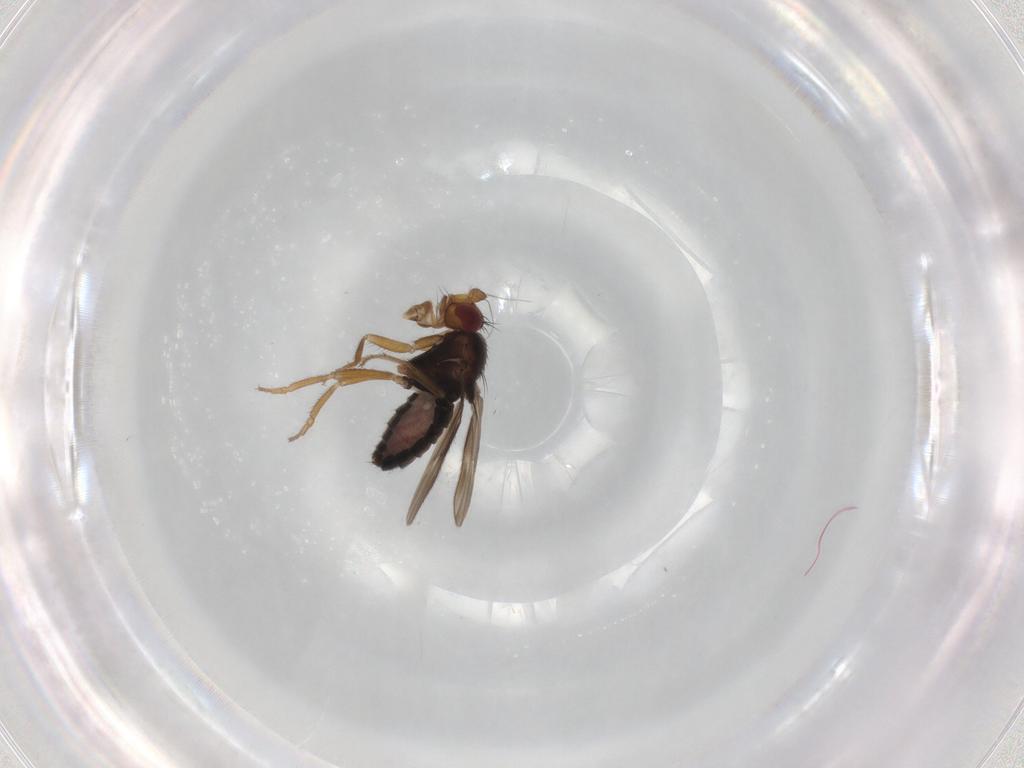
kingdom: Animalia
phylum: Arthropoda
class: Insecta
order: Diptera
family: Sphaeroceridae
